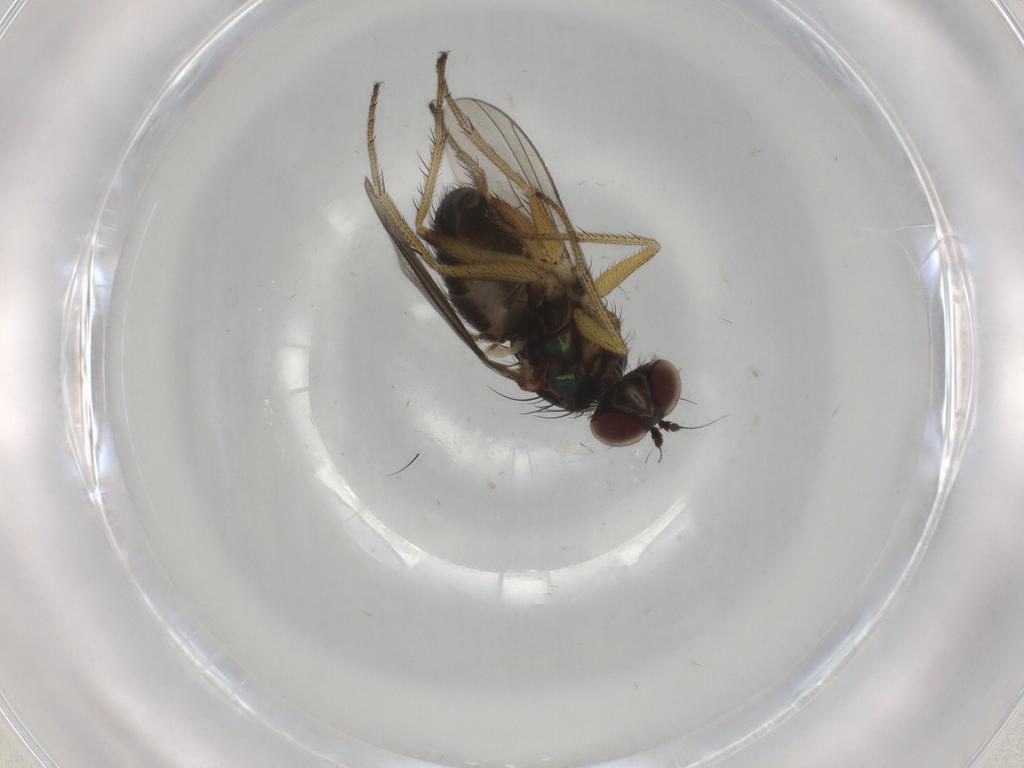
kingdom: Animalia
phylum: Arthropoda
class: Insecta
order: Diptera
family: Dolichopodidae
